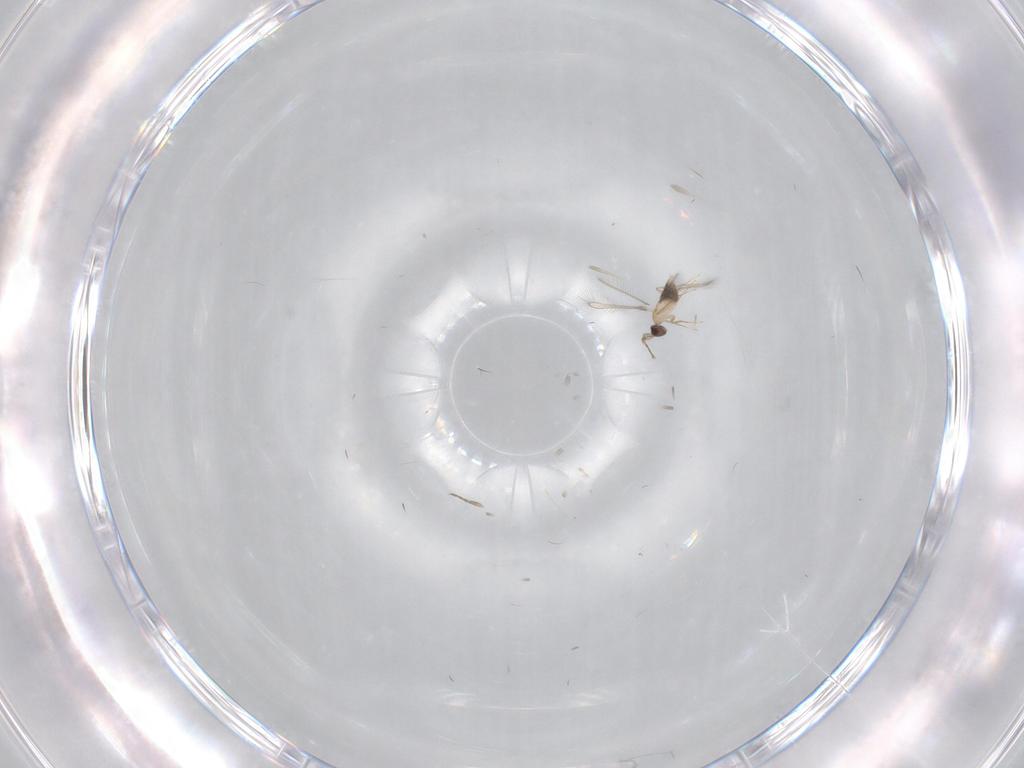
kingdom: Animalia
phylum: Arthropoda
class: Insecta
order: Hymenoptera
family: Mymaridae
